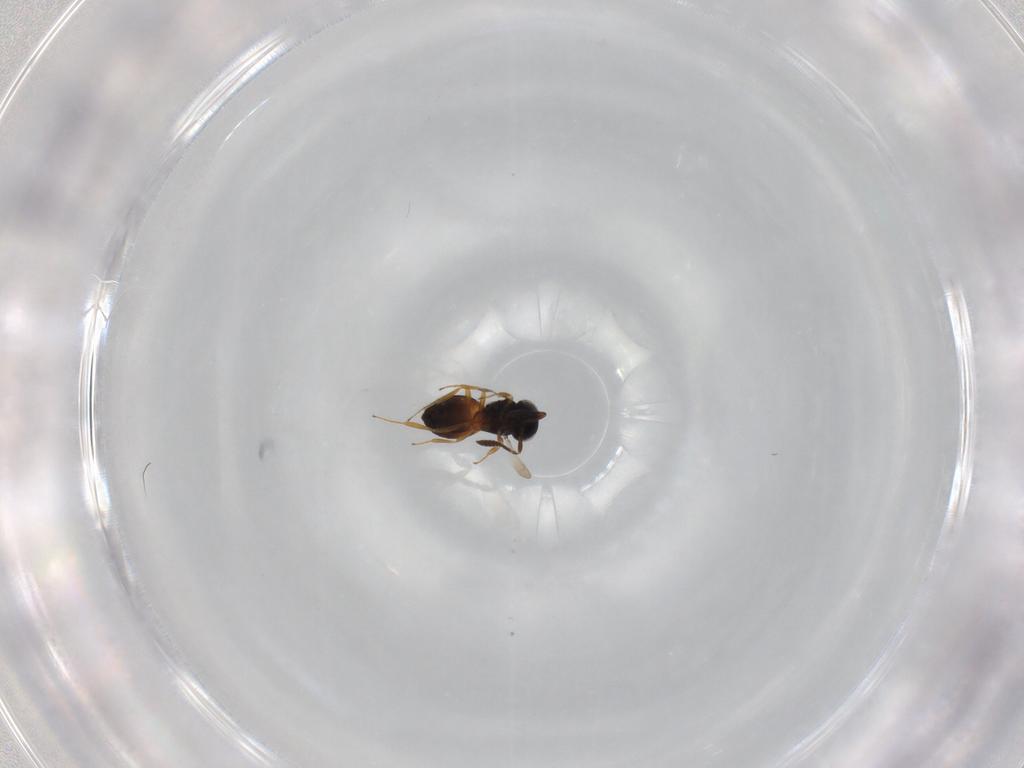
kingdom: Animalia
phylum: Arthropoda
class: Insecta
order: Hymenoptera
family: Scelionidae
